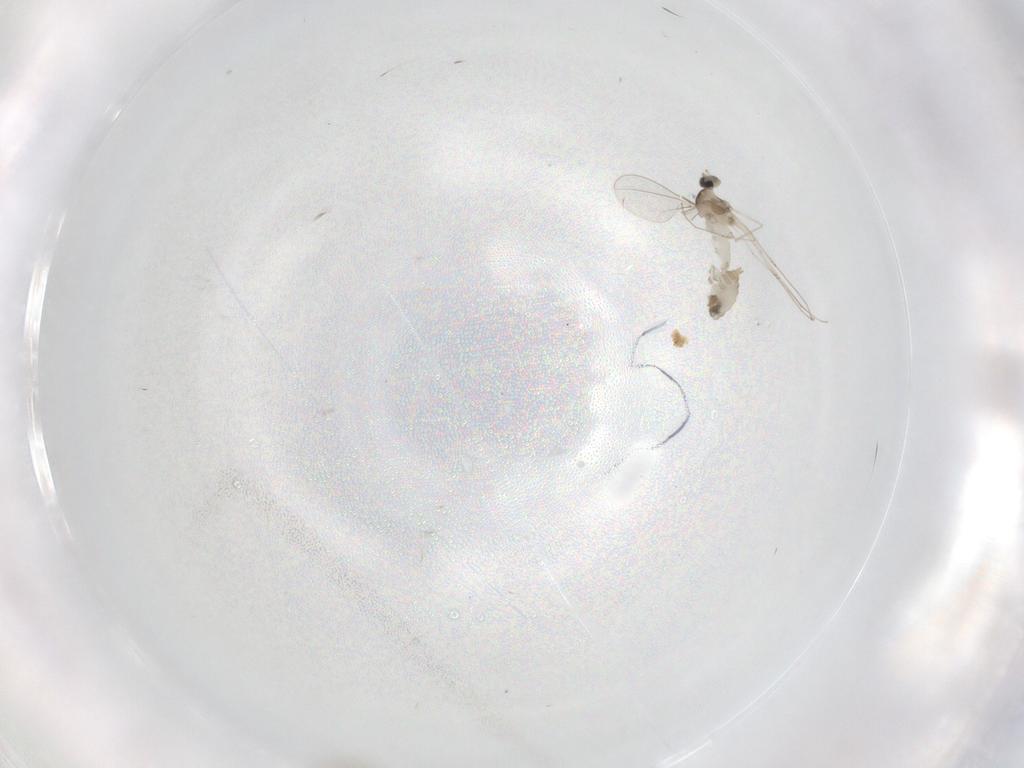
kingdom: Animalia
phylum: Arthropoda
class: Insecta
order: Diptera
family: Cecidomyiidae
